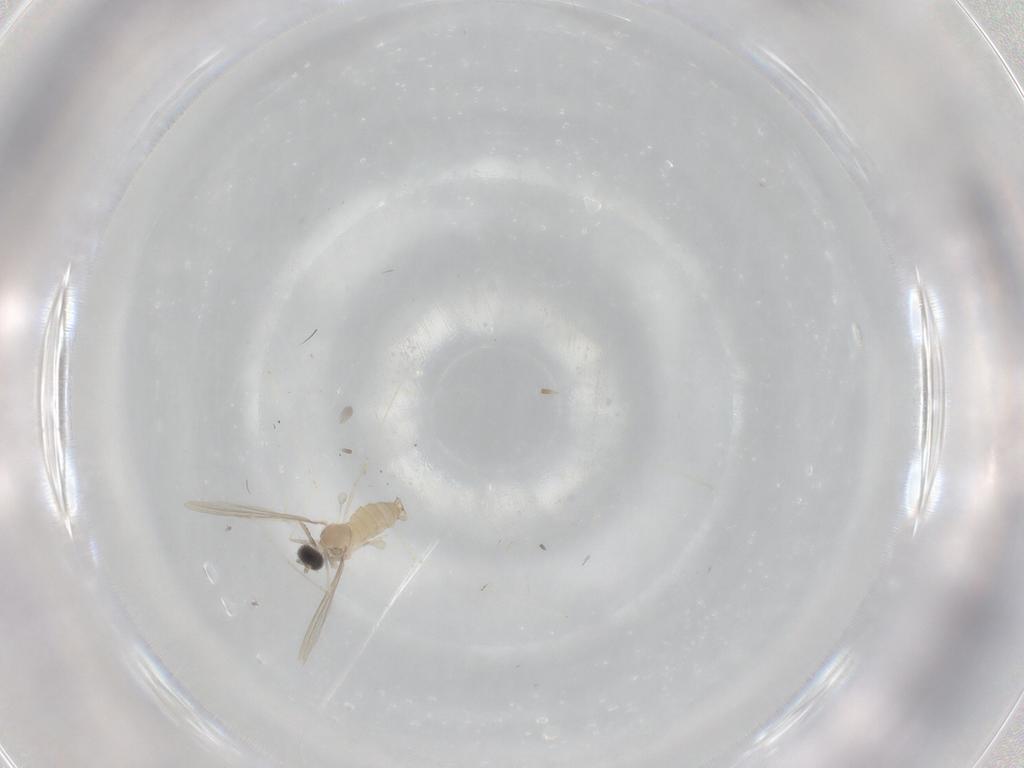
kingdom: Animalia
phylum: Arthropoda
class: Insecta
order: Diptera
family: Cecidomyiidae
